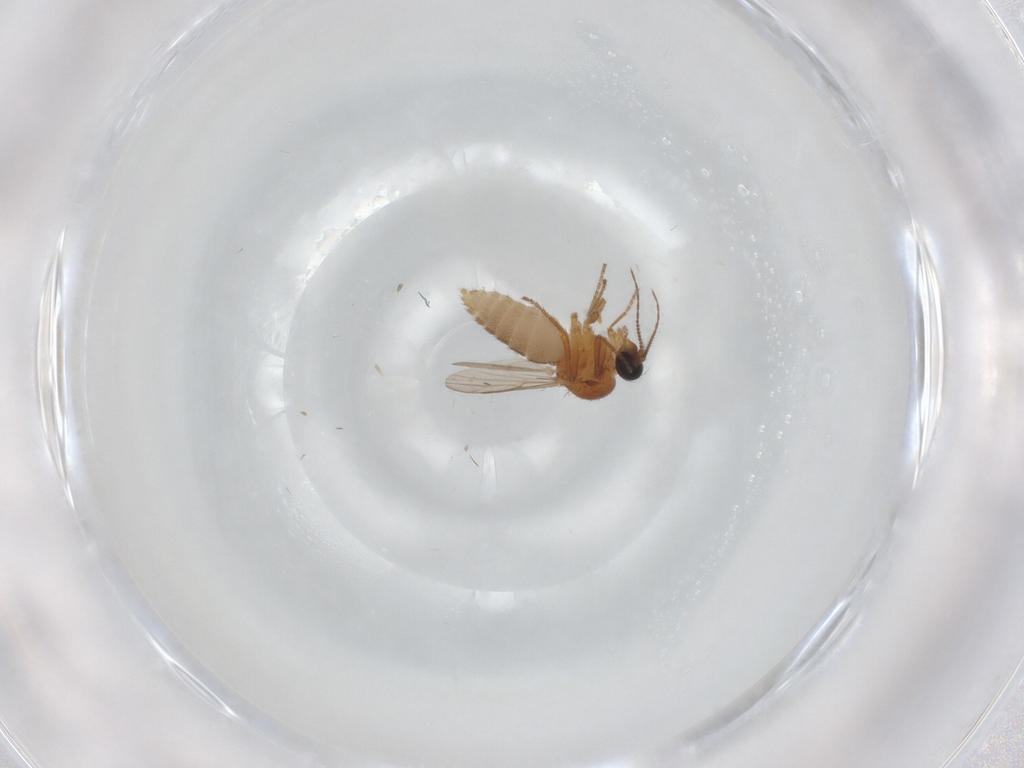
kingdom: Animalia
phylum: Arthropoda
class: Insecta
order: Diptera
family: Ceratopogonidae
